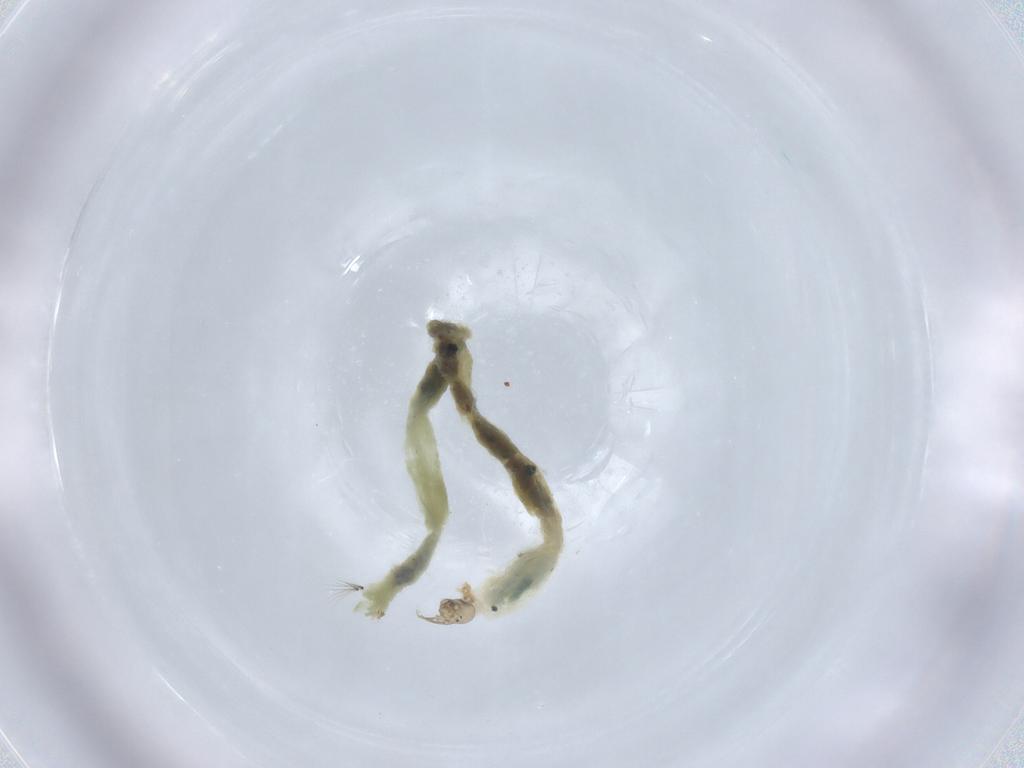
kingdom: Animalia
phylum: Arthropoda
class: Insecta
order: Diptera
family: Chironomidae
